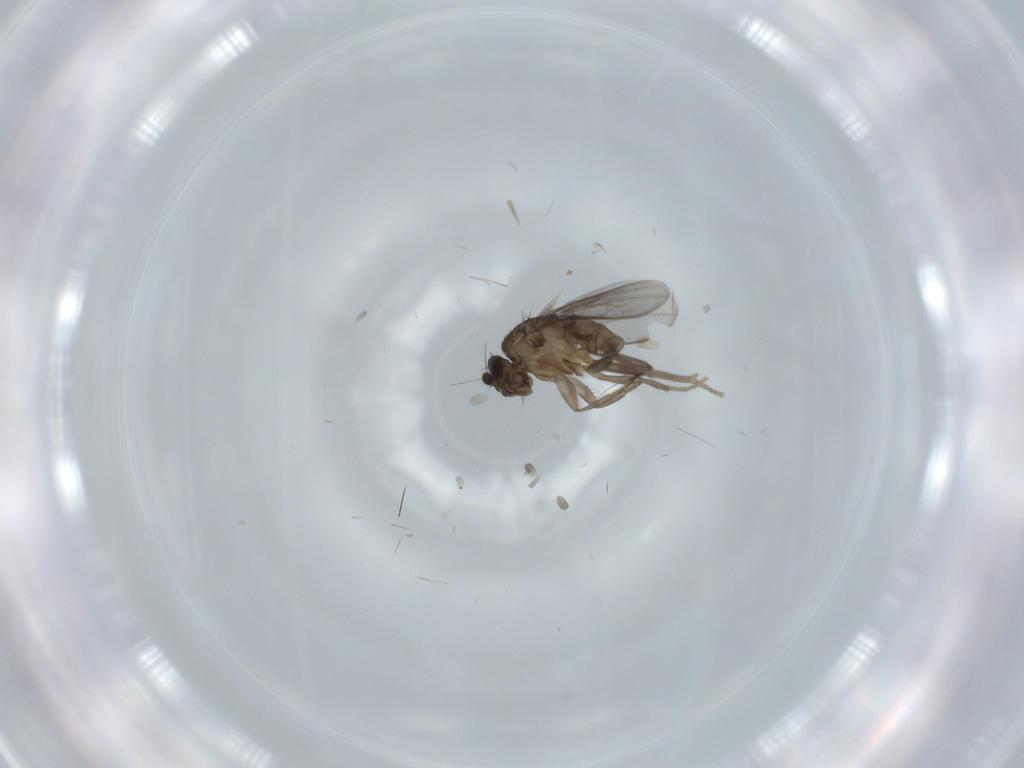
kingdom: Animalia
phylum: Arthropoda
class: Insecta
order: Diptera
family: Sphaeroceridae
